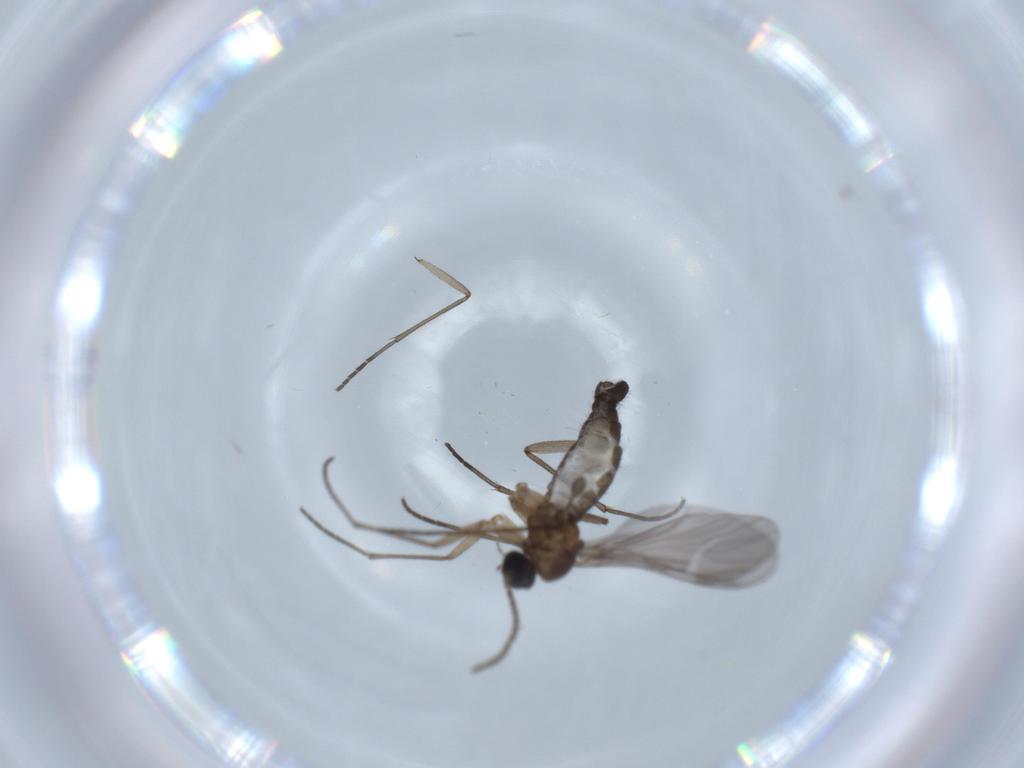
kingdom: Animalia
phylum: Arthropoda
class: Insecta
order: Diptera
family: Sciaridae
